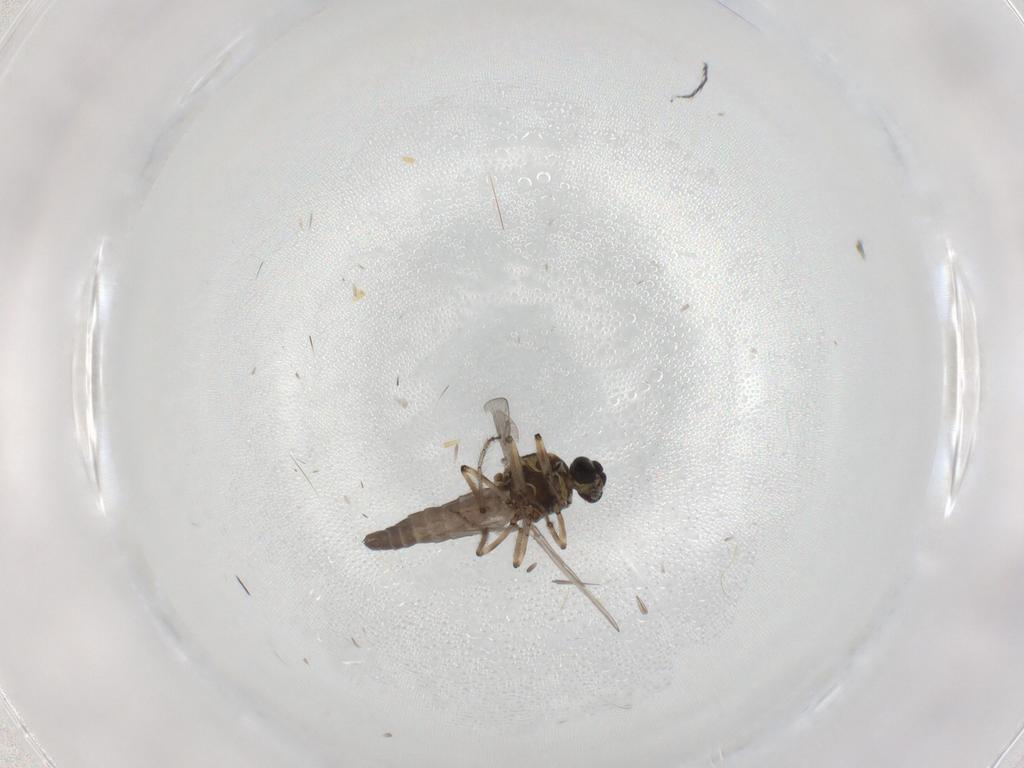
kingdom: Animalia
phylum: Arthropoda
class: Insecta
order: Diptera
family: Ceratopogonidae
